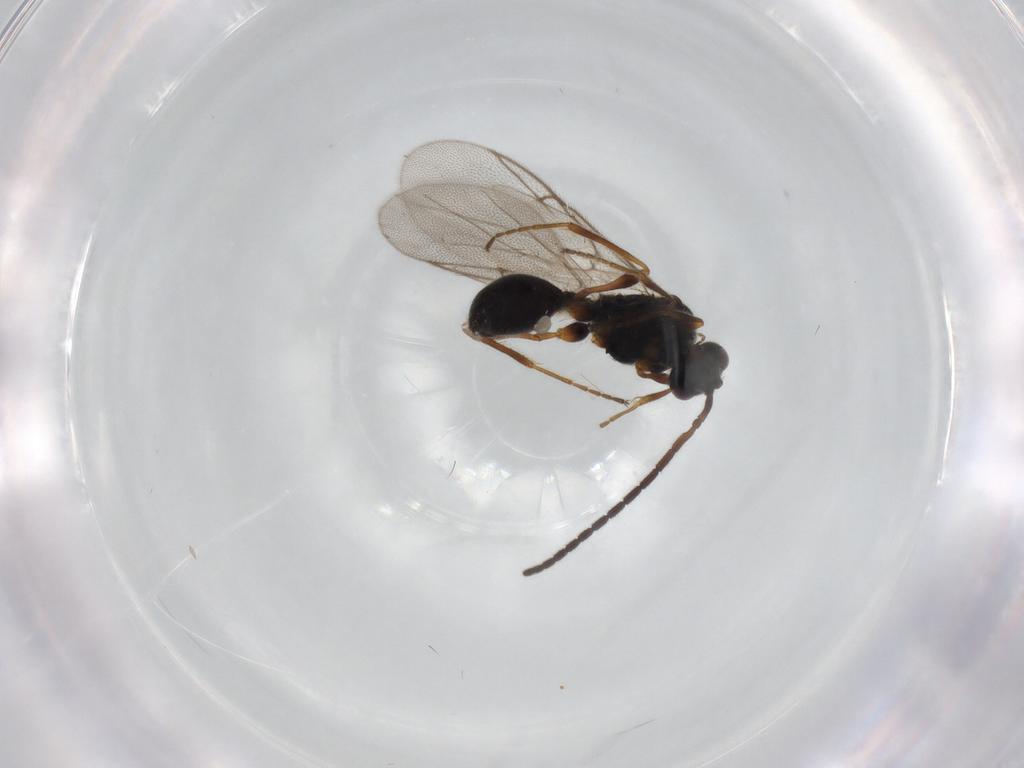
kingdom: Animalia
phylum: Arthropoda
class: Insecta
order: Hymenoptera
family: Diapriidae
